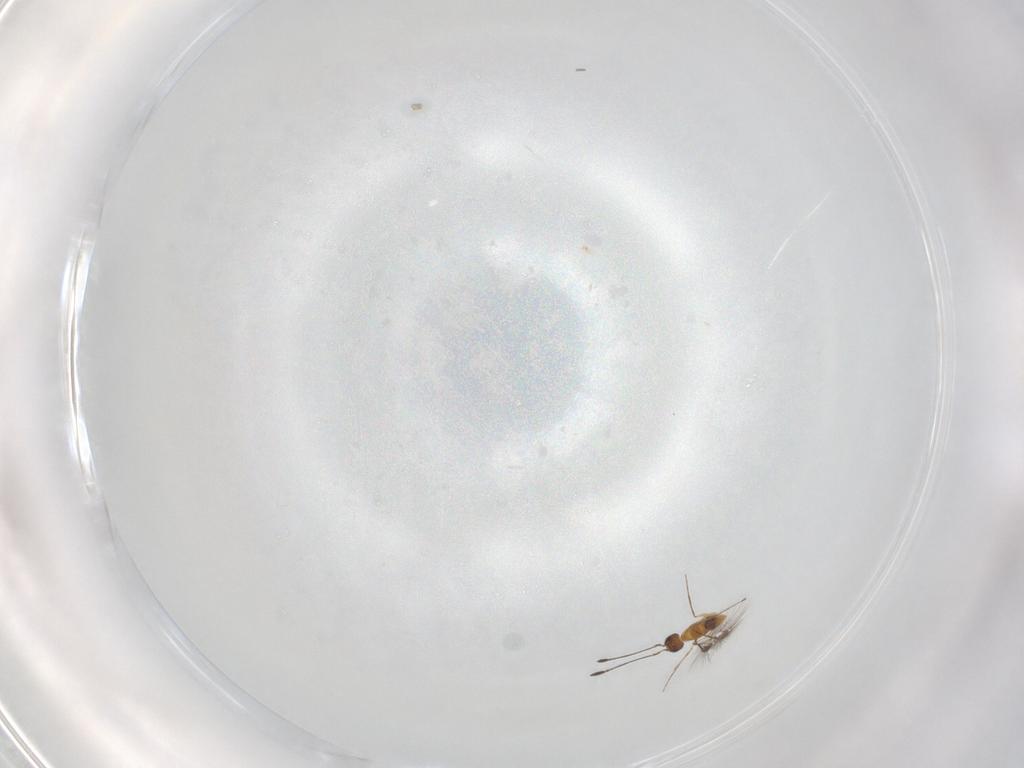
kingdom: Animalia
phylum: Arthropoda
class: Insecta
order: Hymenoptera
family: Mymaridae
